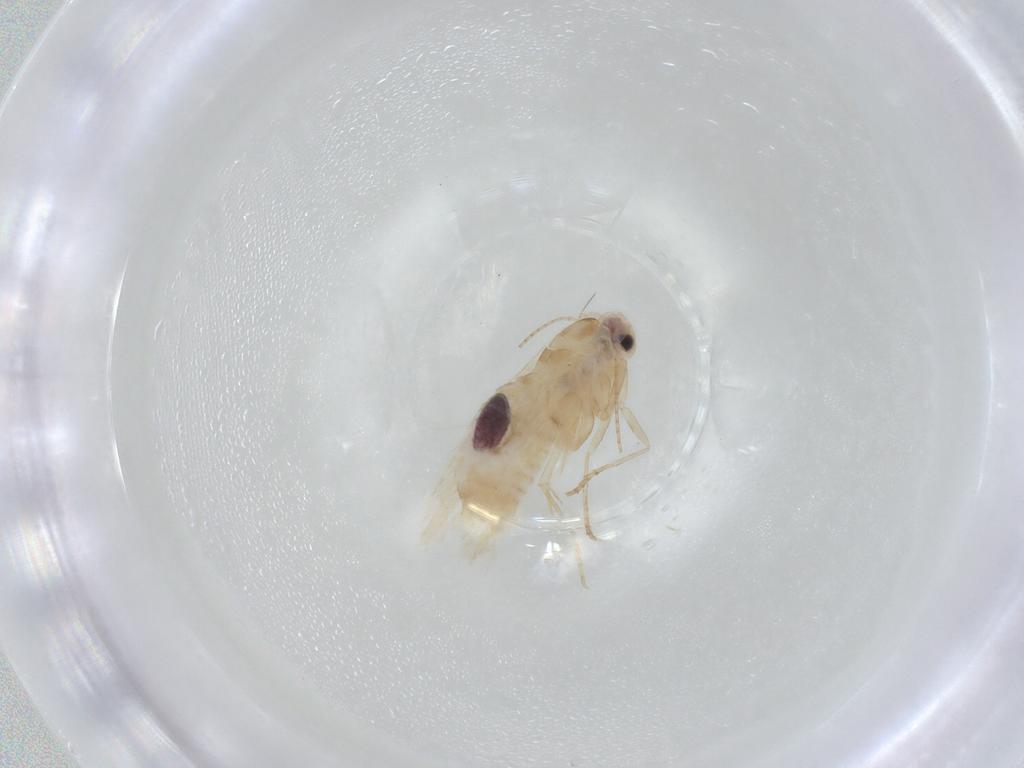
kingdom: Animalia
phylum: Arthropoda
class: Insecta
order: Lepidoptera
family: Bucculatricidae
